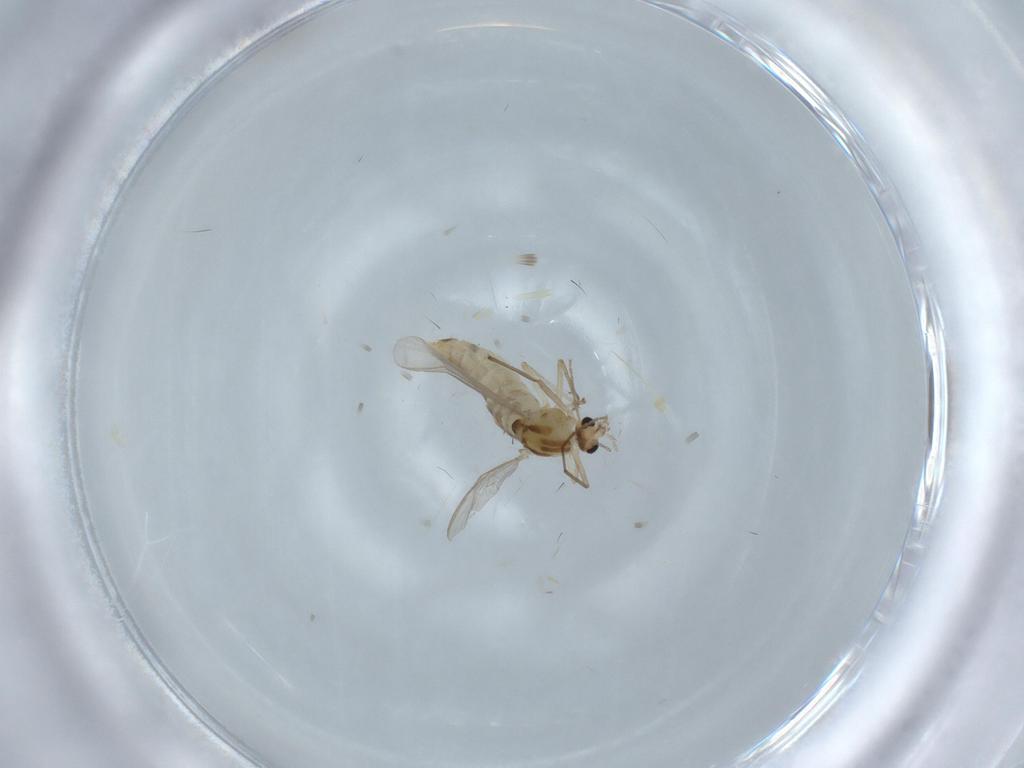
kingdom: Animalia
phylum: Arthropoda
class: Insecta
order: Diptera
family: Chironomidae
